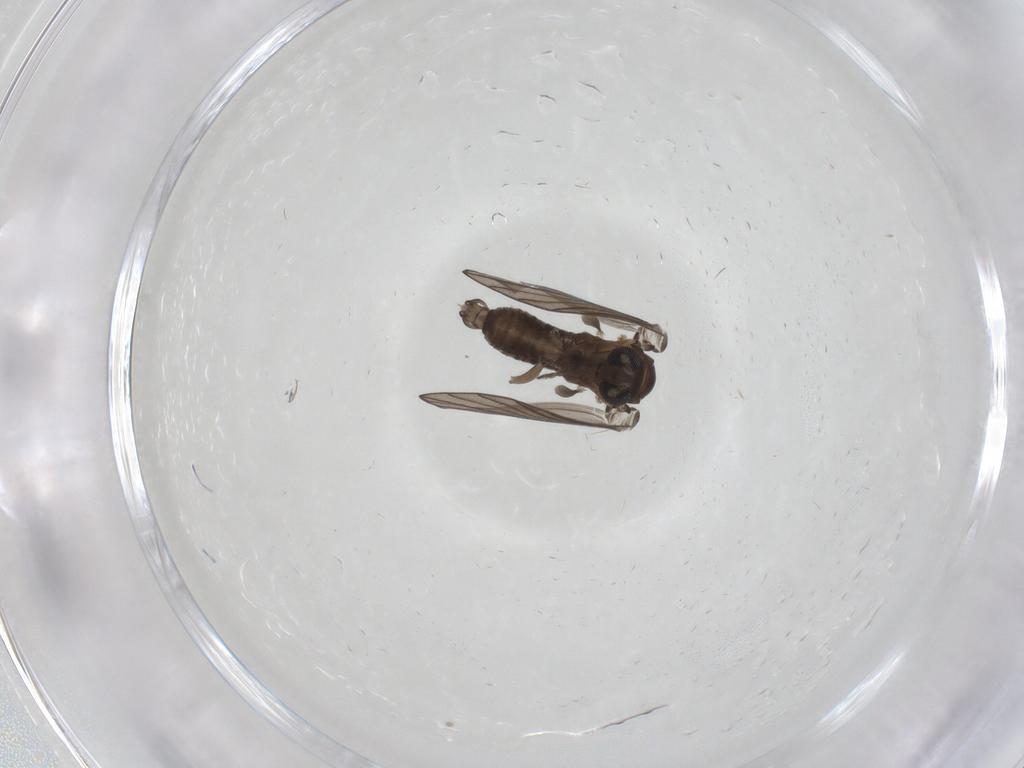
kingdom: Animalia
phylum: Arthropoda
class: Insecta
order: Diptera
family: Psychodidae
